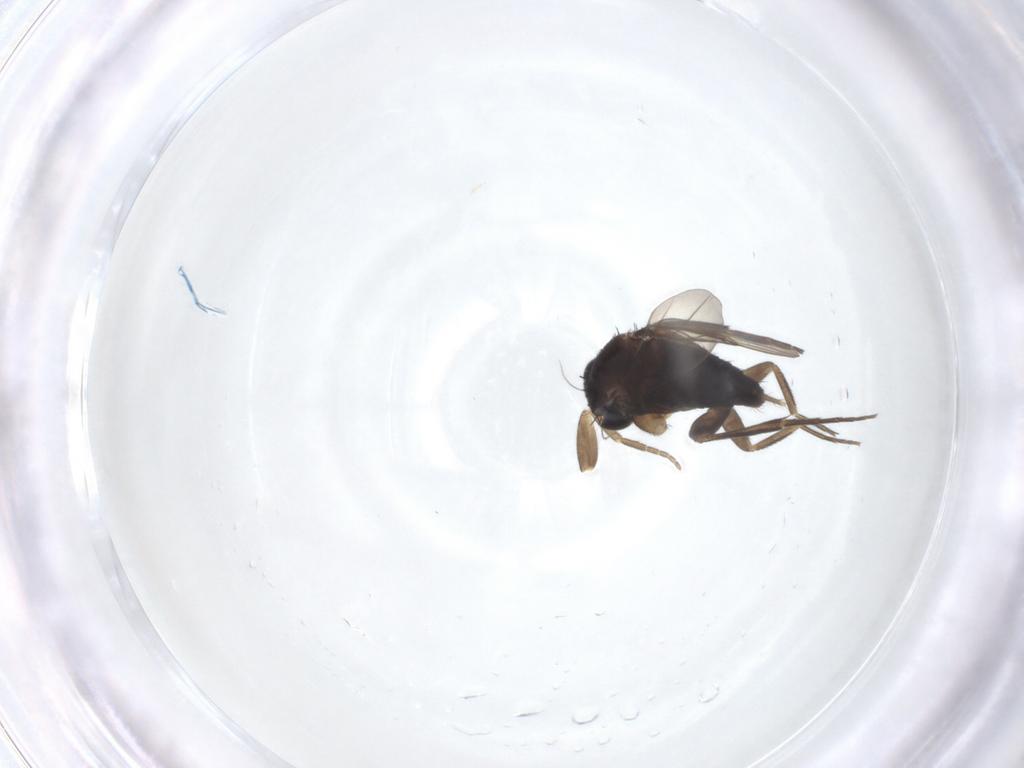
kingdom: Animalia
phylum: Arthropoda
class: Insecta
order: Diptera
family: Phoridae
